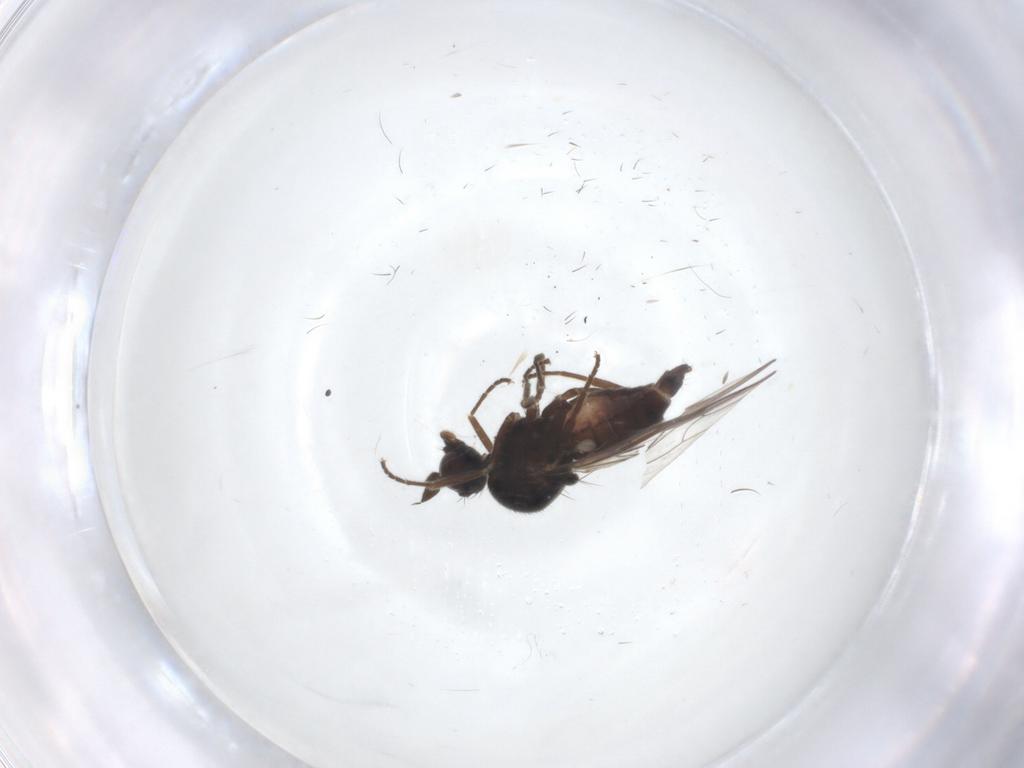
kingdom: Animalia
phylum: Arthropoda
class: Insecta
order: Diptera
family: Muscidae
